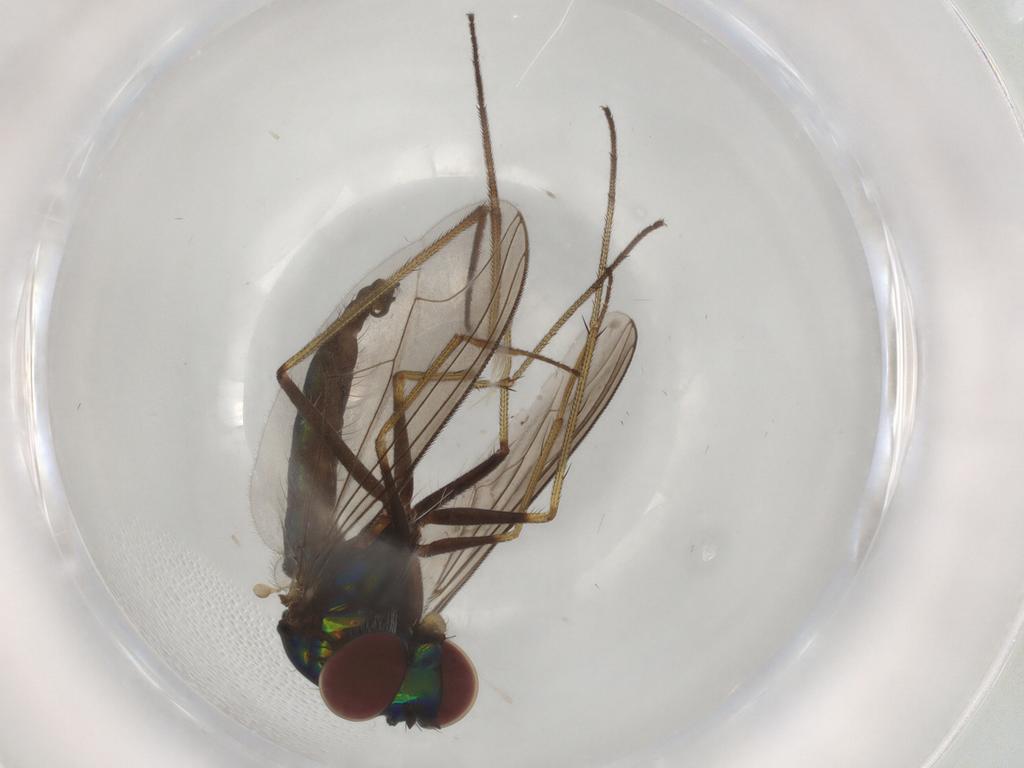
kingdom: Animalia
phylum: Arthropoda
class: Insecta
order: Diptera
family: Dolichopodidae
